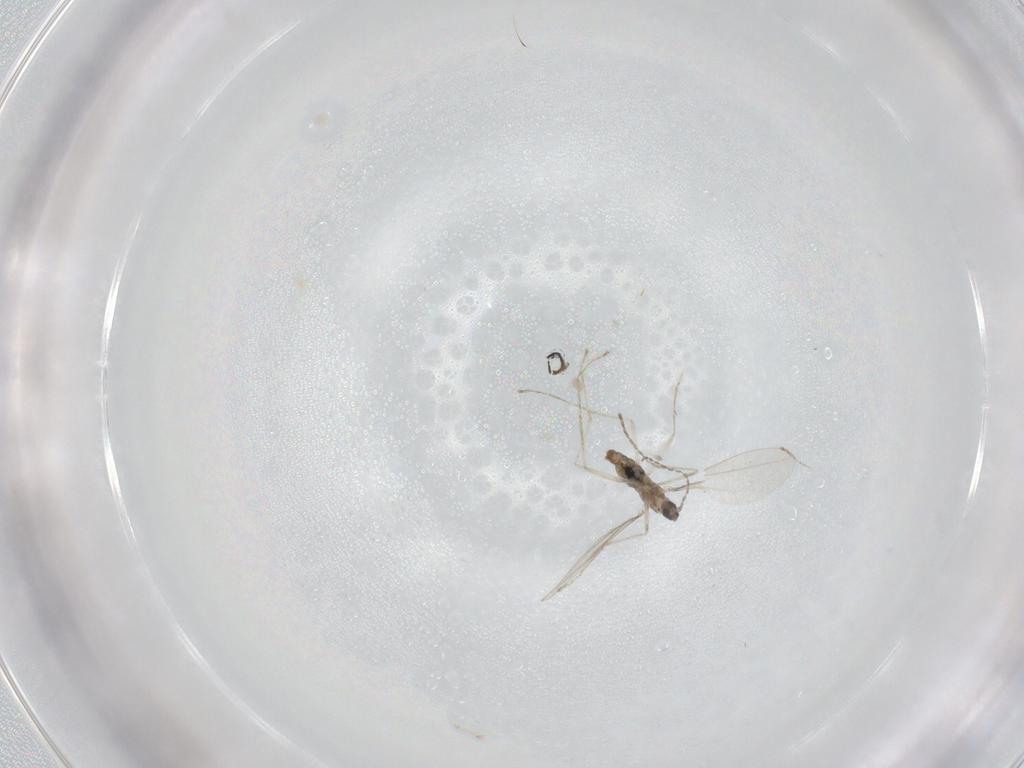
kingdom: Animalia
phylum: Arthropoda
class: Insecta
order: Diptera
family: Cecidomyiidae
